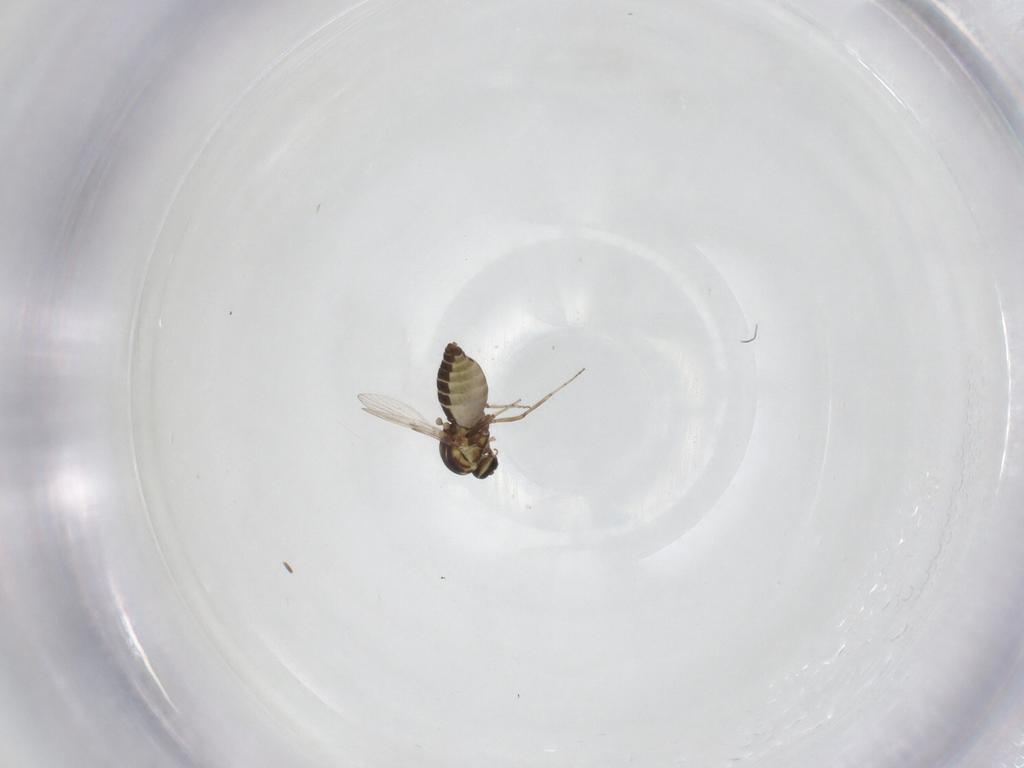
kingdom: Animalia
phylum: Arthropoda
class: Insecta
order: Diptera
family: Ceratopogonidae
